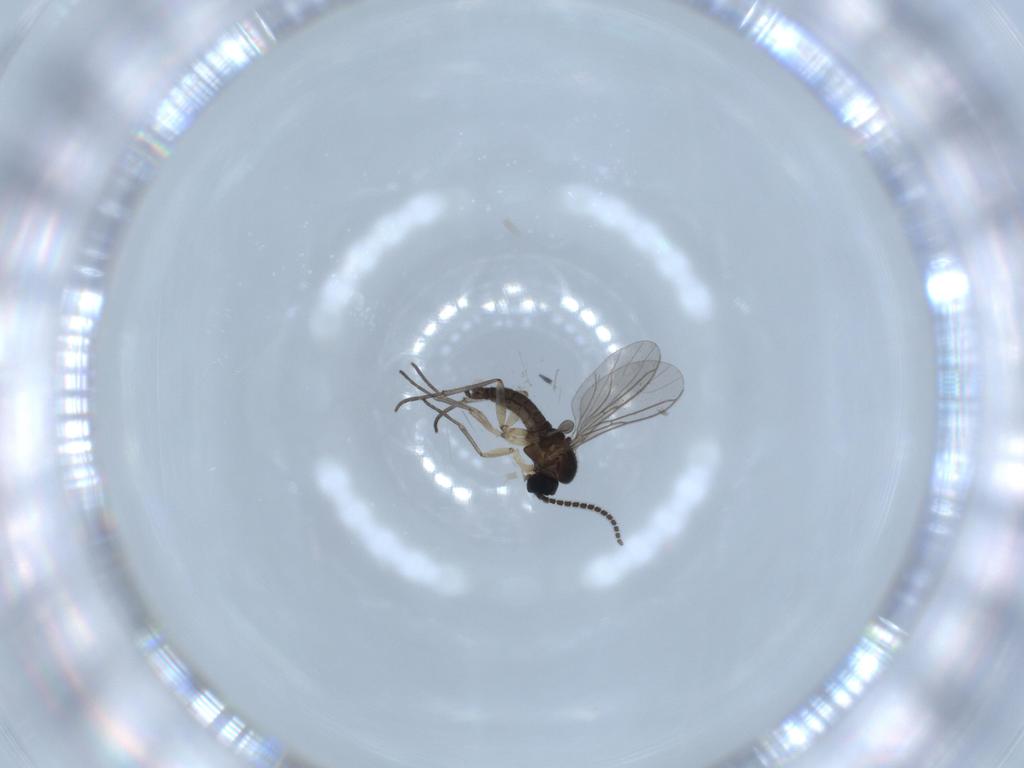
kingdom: Animalia
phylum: Arthropoda
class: Insecta
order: Diptera
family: Sciaridae
